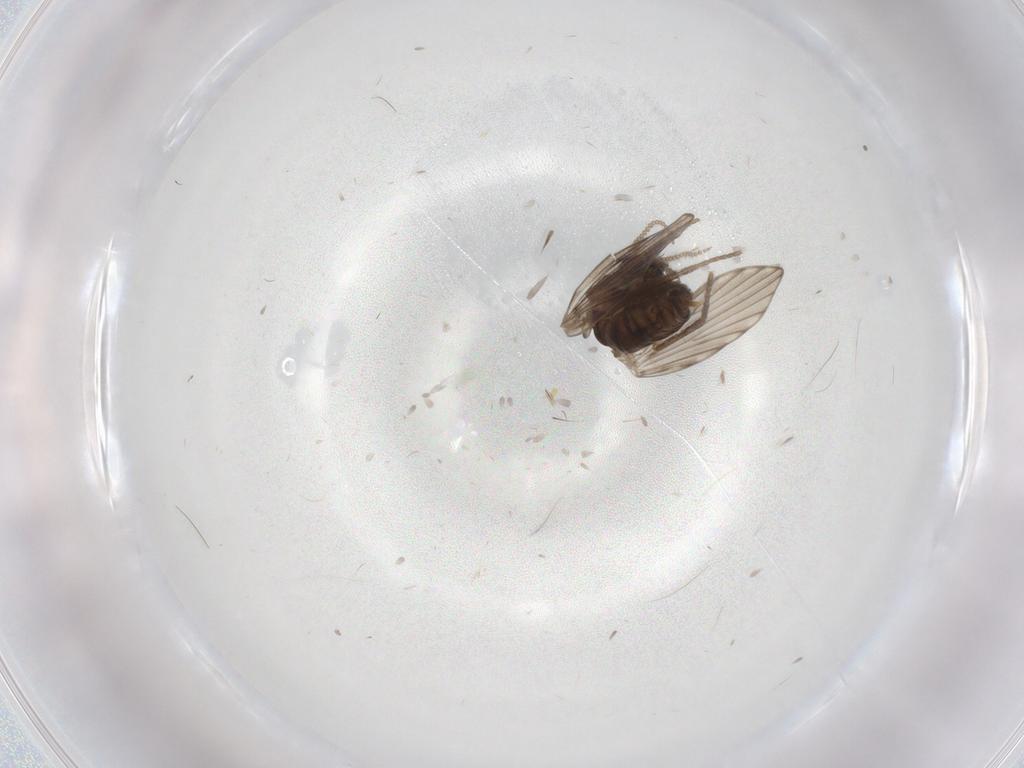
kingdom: Animalia
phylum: Arthropoda
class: Insecta
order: Diptera
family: Psychodidae
